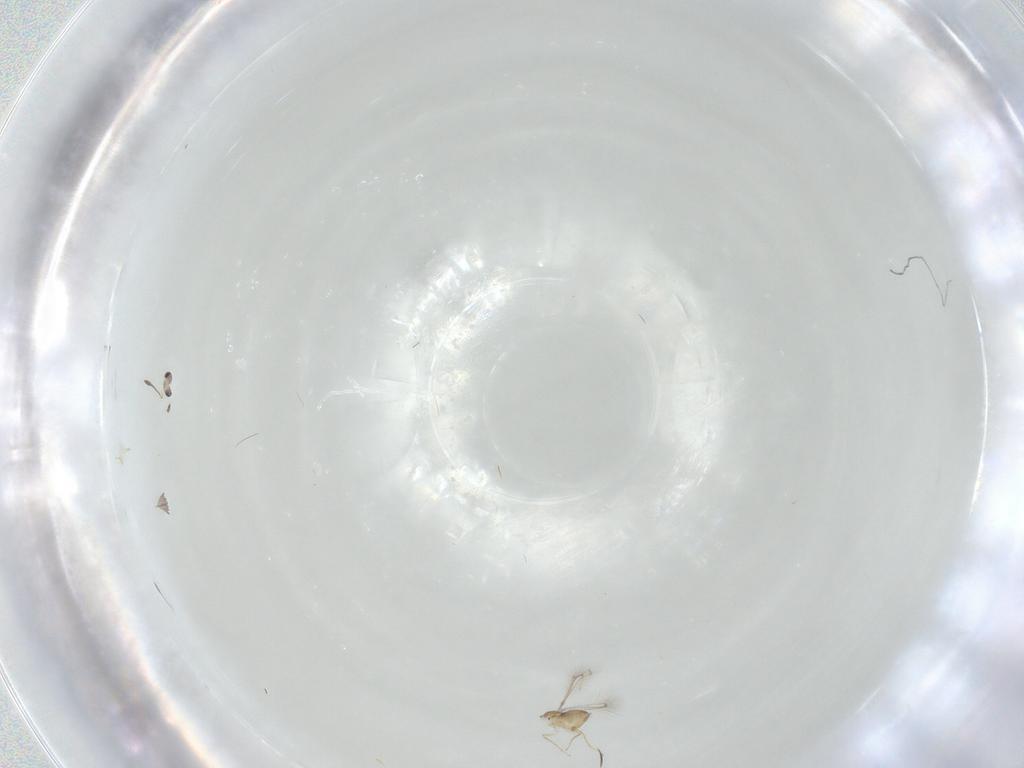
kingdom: Animalia
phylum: Arthropoda
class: Insecta
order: Hymenoptera
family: Mymaridae
